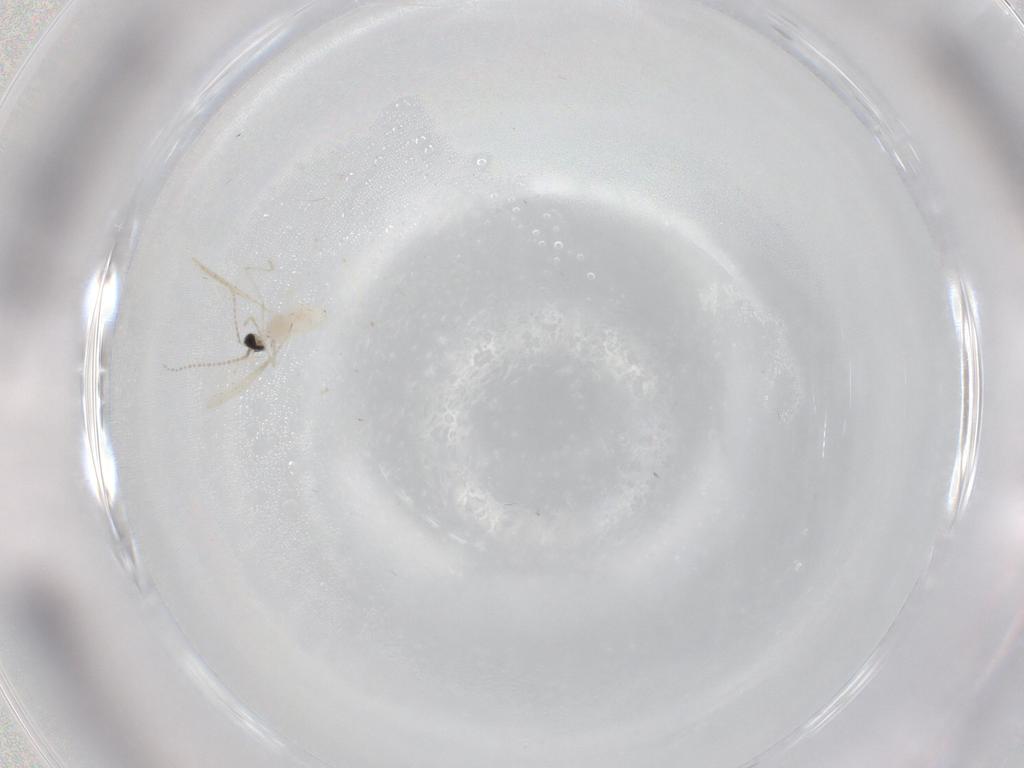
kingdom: Animalia
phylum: Arthropoda
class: Insecta
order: Diptera
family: Cecidomyiidae
